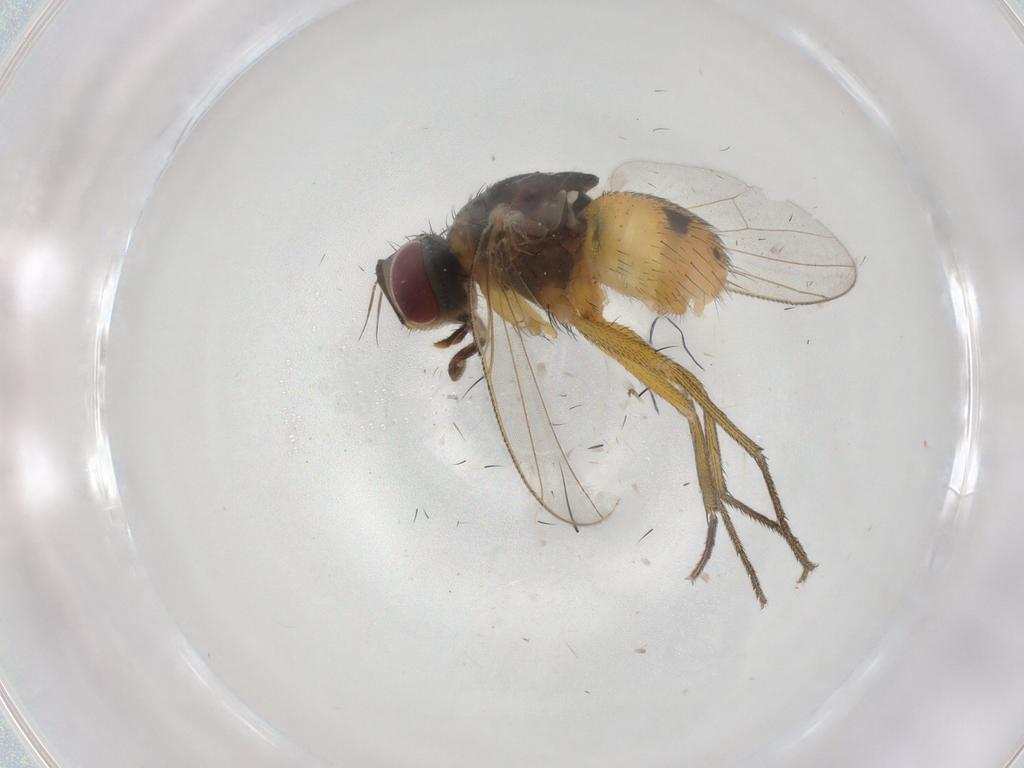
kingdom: Animalia
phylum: Arthropoda
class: Insecta
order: Diptera
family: Muscidae
